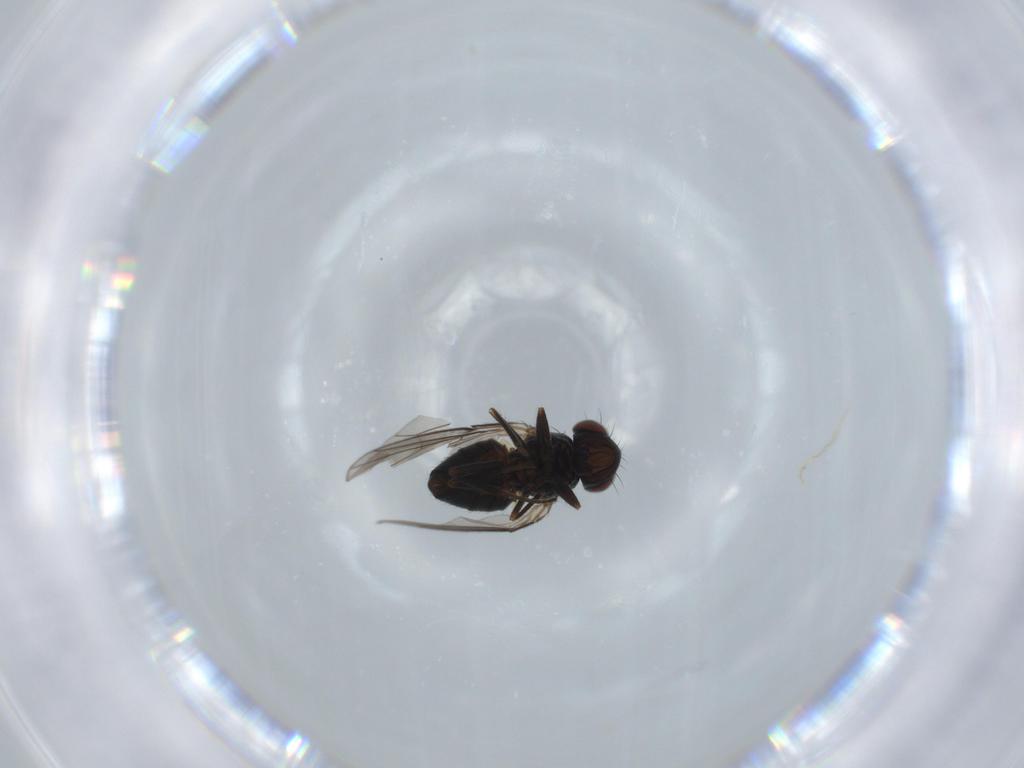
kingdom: Animalia
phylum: Arthropoda
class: Insecta
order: Diptera
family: Ephydridae
